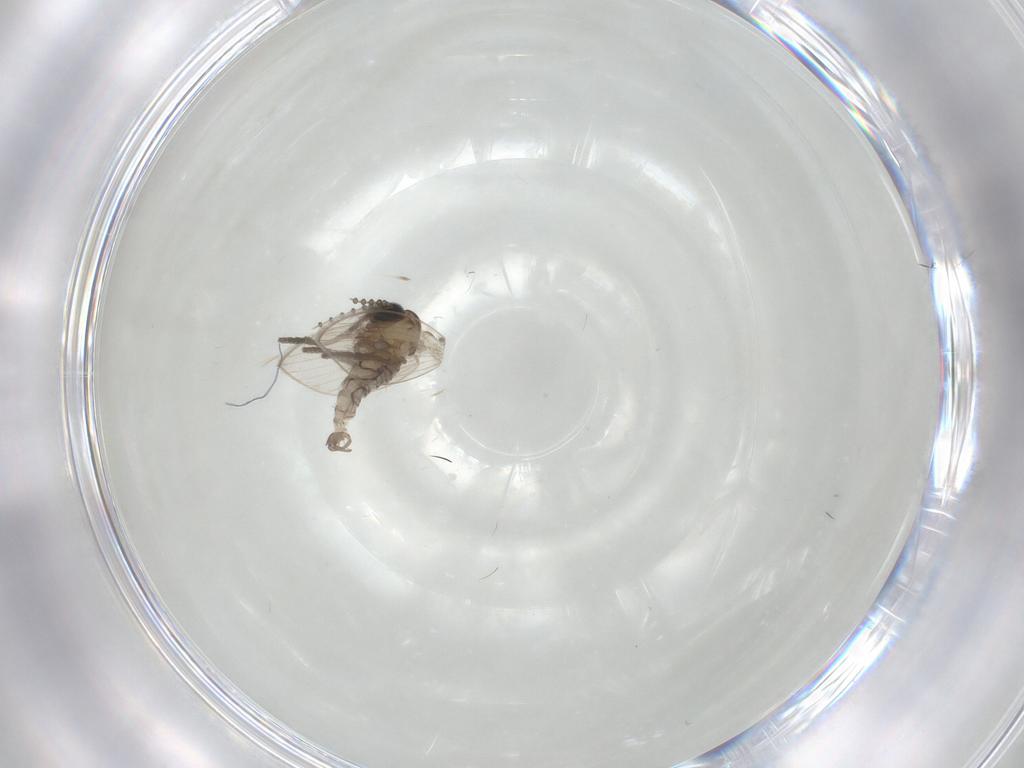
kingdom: Animalia
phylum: Arthropoda
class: Insecta
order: Diptera
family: Psychodidae
